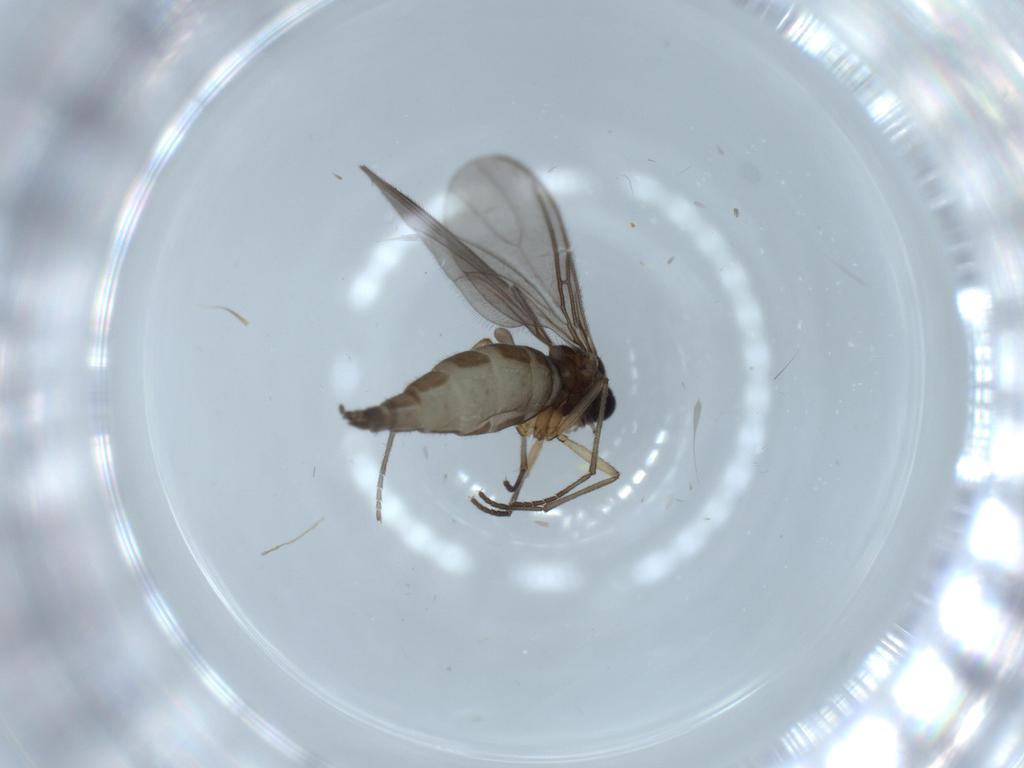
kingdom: Animalia
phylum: Arthropoda
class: Insecta
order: Diptera
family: Sciaridae
